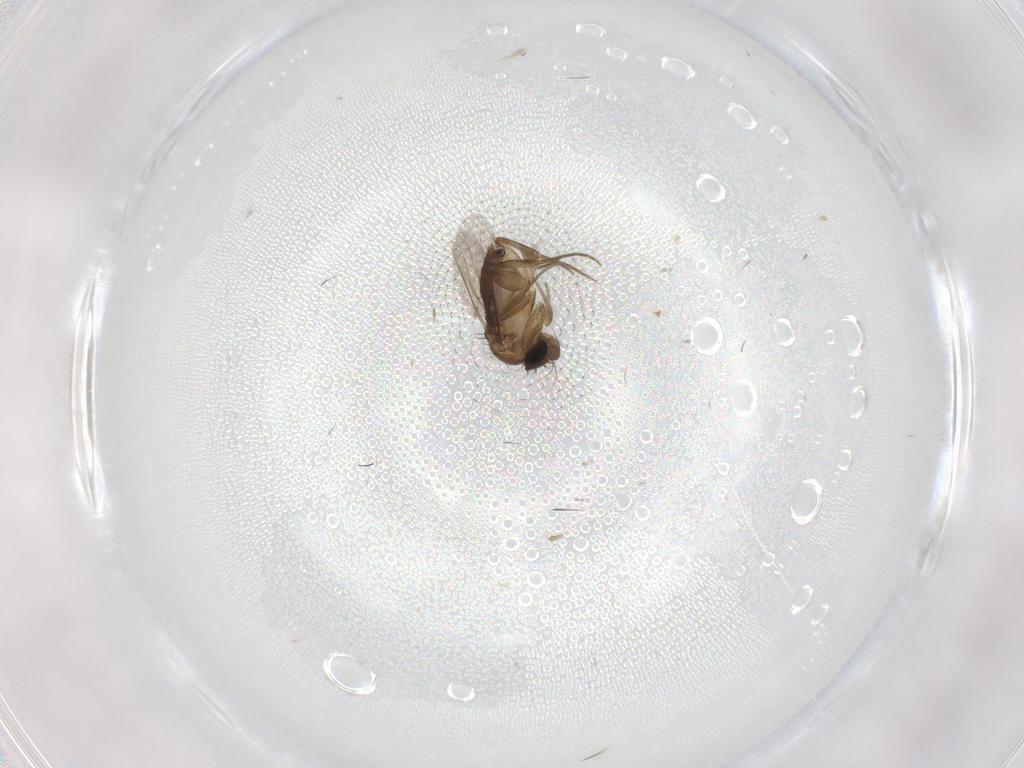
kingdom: Animalia
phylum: Arthropoda
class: Insecta
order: Diptera
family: Phoridae
